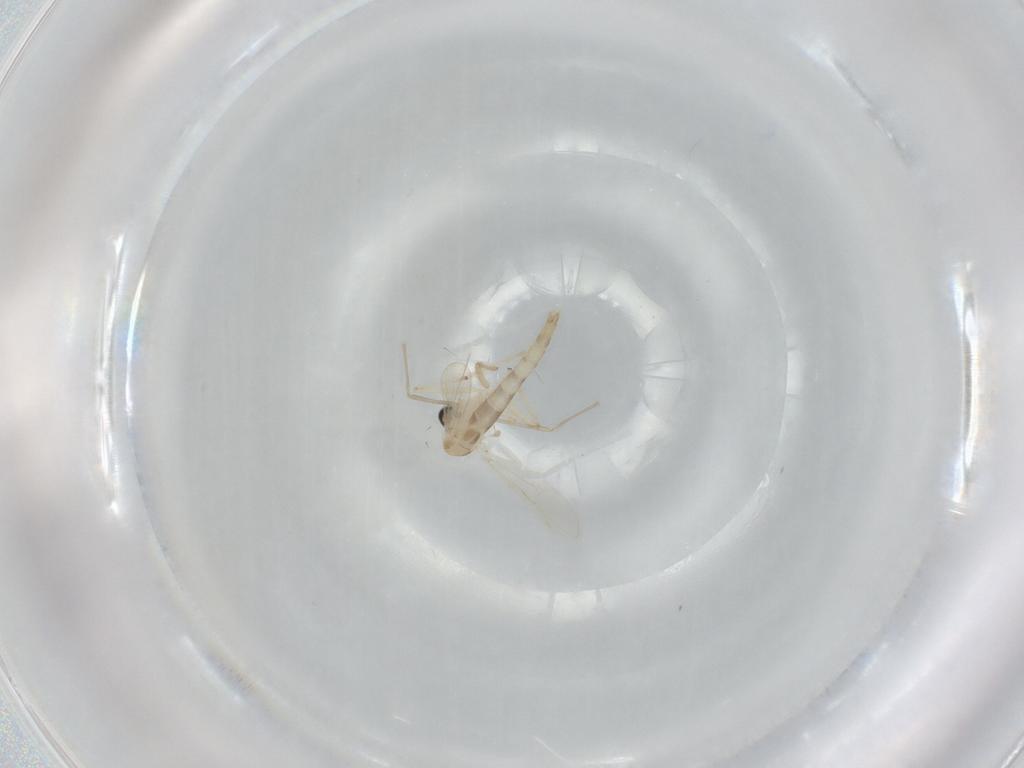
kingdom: Animalia
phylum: Arthropoda
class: Insecta
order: Diptera
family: Chironomidae
